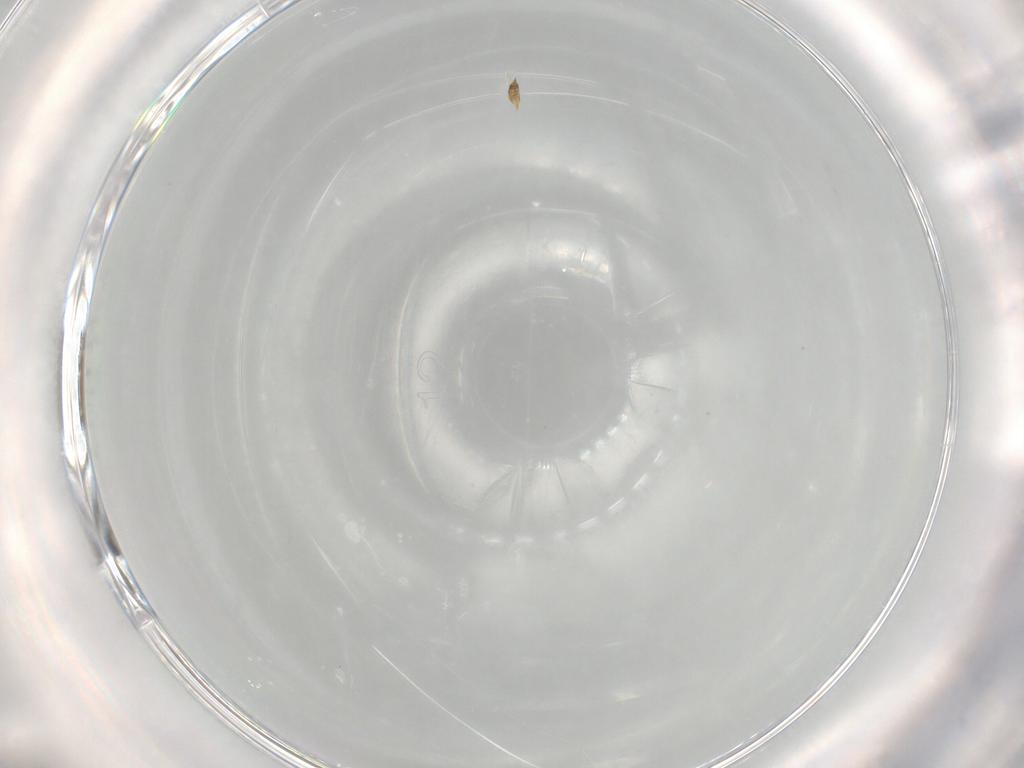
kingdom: Animalia
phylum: Arthropoda
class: Insecta
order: Hymenoptera
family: Mymaridae
